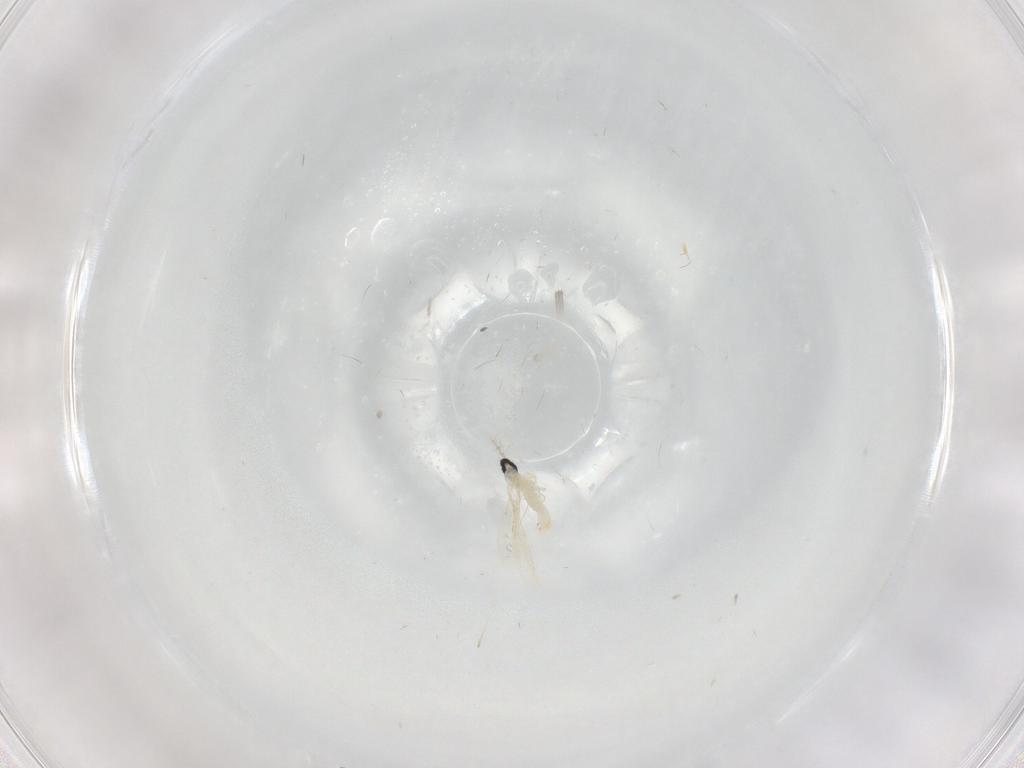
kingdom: Animalia
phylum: Arthropoda
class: Insecta
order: Diptera
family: Cecidomyiidae
